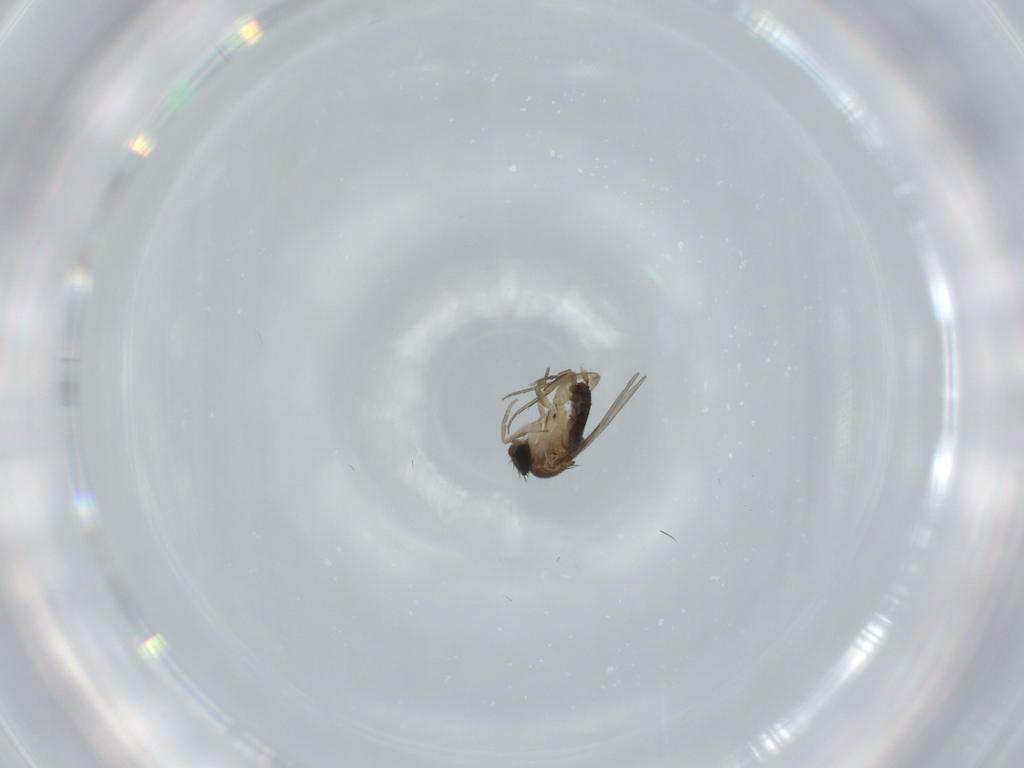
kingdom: Animalia
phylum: Arthropoda
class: Insecta
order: Diptera
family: Phoridae
